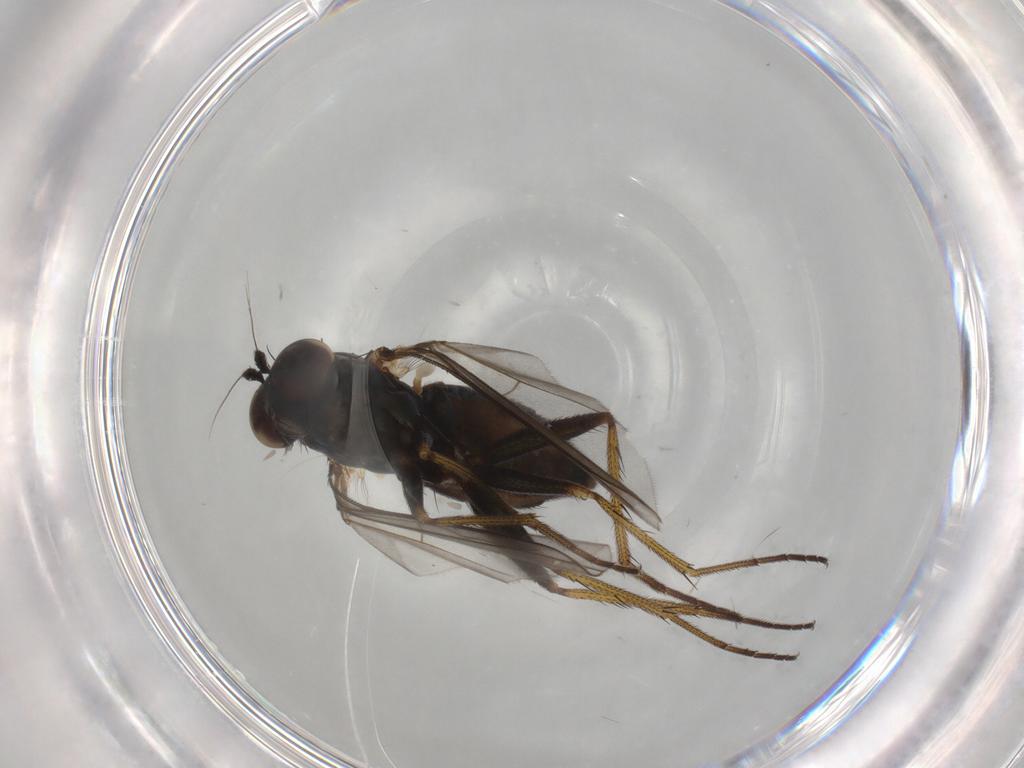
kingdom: Animalia
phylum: Arthropoda
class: Insecta
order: Diptera
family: Dolichopodidae
